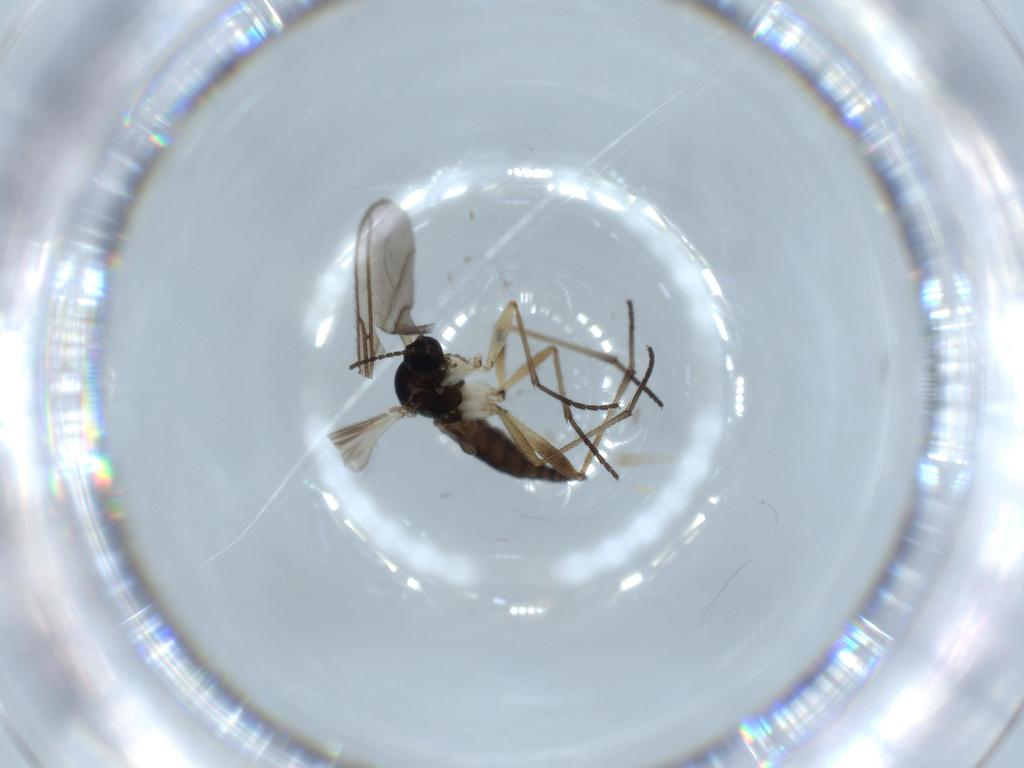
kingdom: Animalia
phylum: Arthropoda
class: Insecta
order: Diptera
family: Sciaridae
